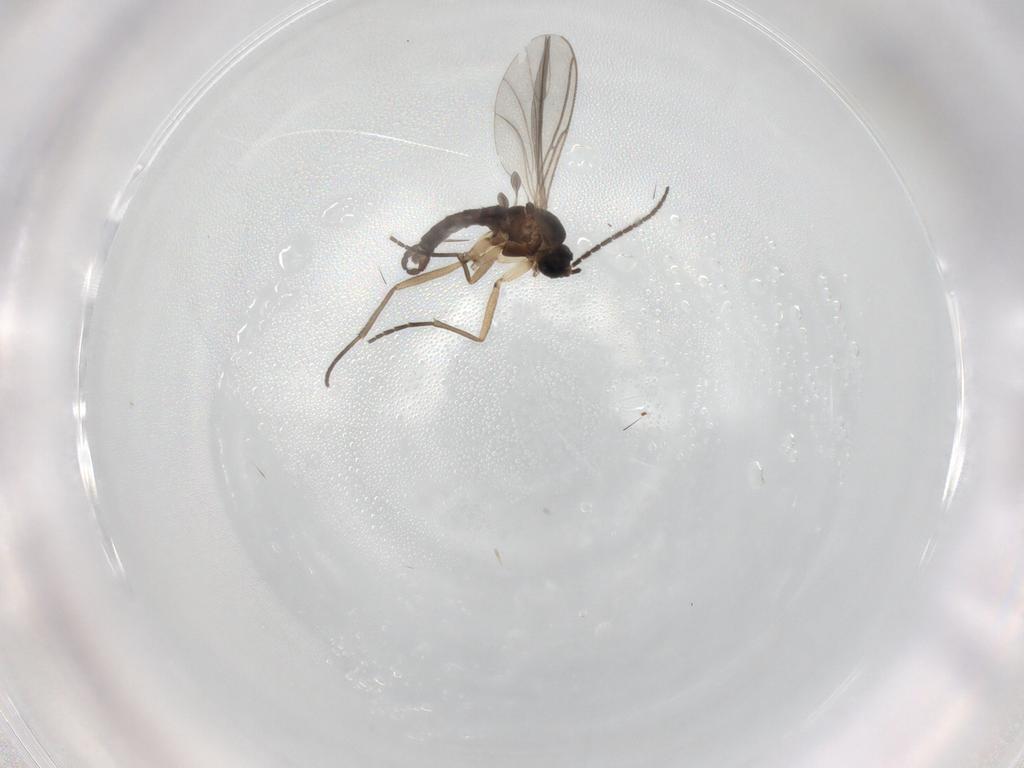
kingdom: Animalia
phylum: Arthropoda
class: Insecta
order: Diptera
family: Sciaridae
